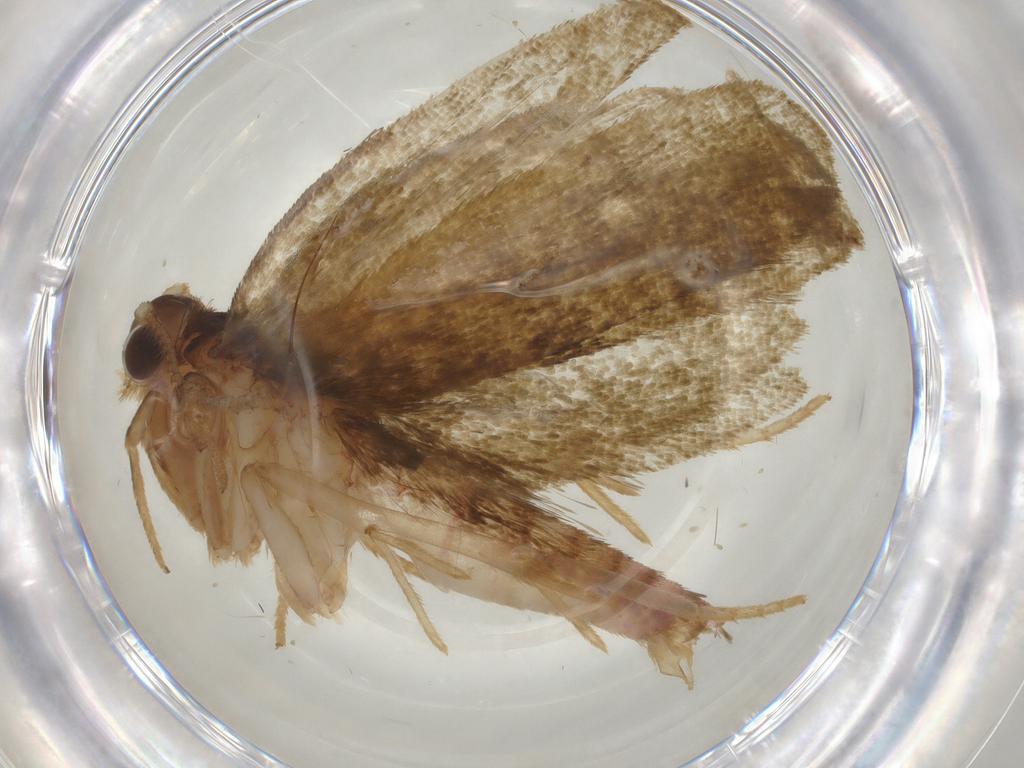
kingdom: Animalia
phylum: Arthropoda
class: Insecta
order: Lepidoptera
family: Geometridae
